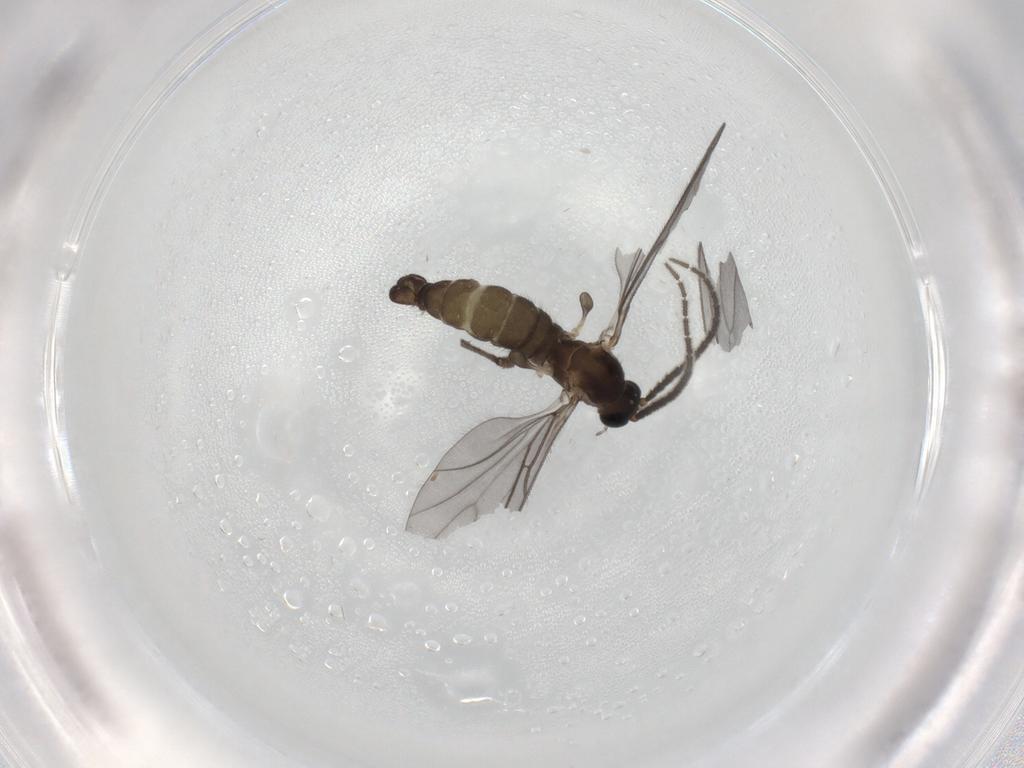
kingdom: Animalia
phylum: Arthropoda
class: Insecta
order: Diptera
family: Sciaridae
